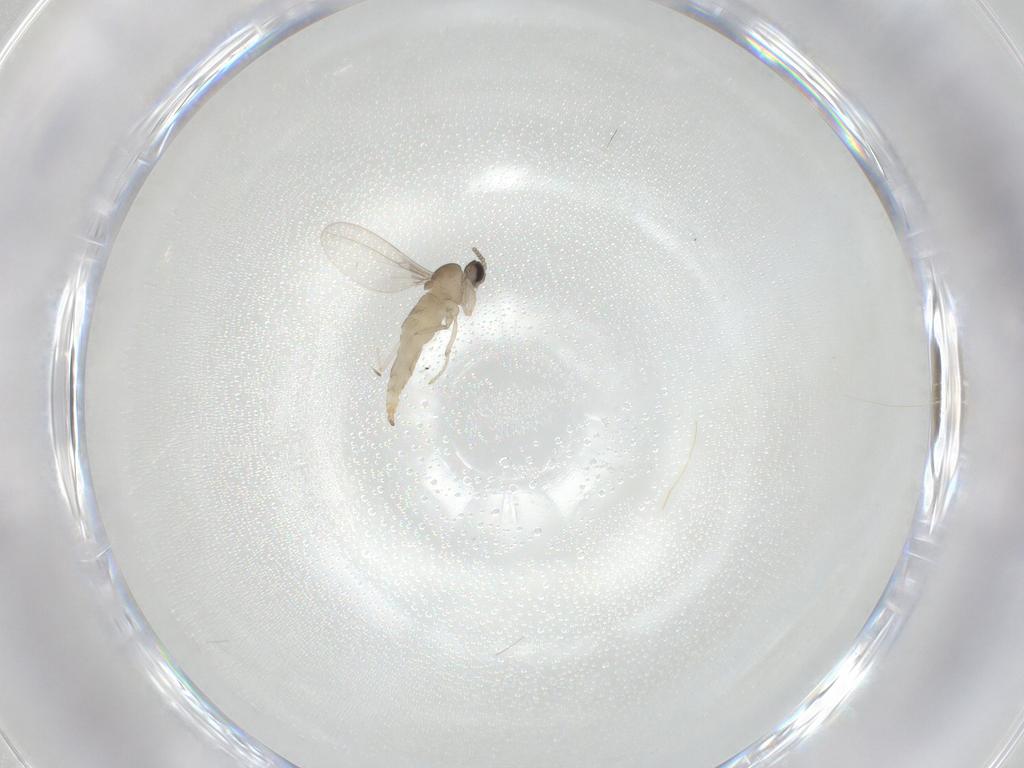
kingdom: Animalia
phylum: Arthropoda
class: Insecta
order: Diptera
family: Cecidomyiidae
